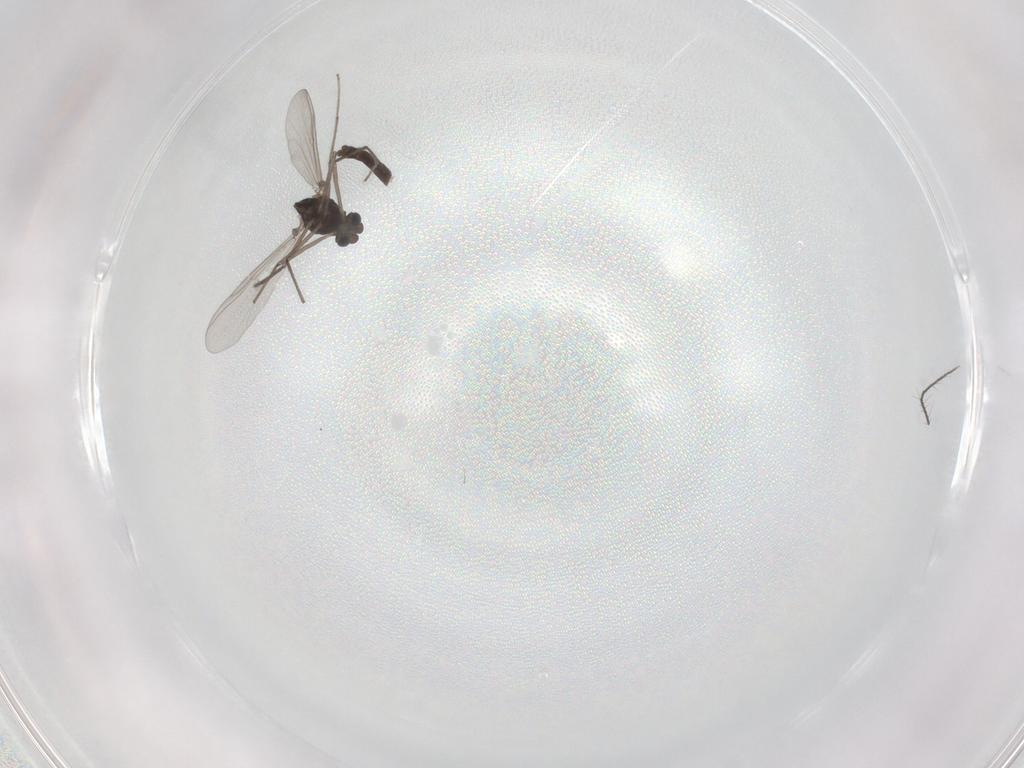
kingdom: Animalia
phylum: Arthropoda
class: Insecta
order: Diptera
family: Chironomidae
